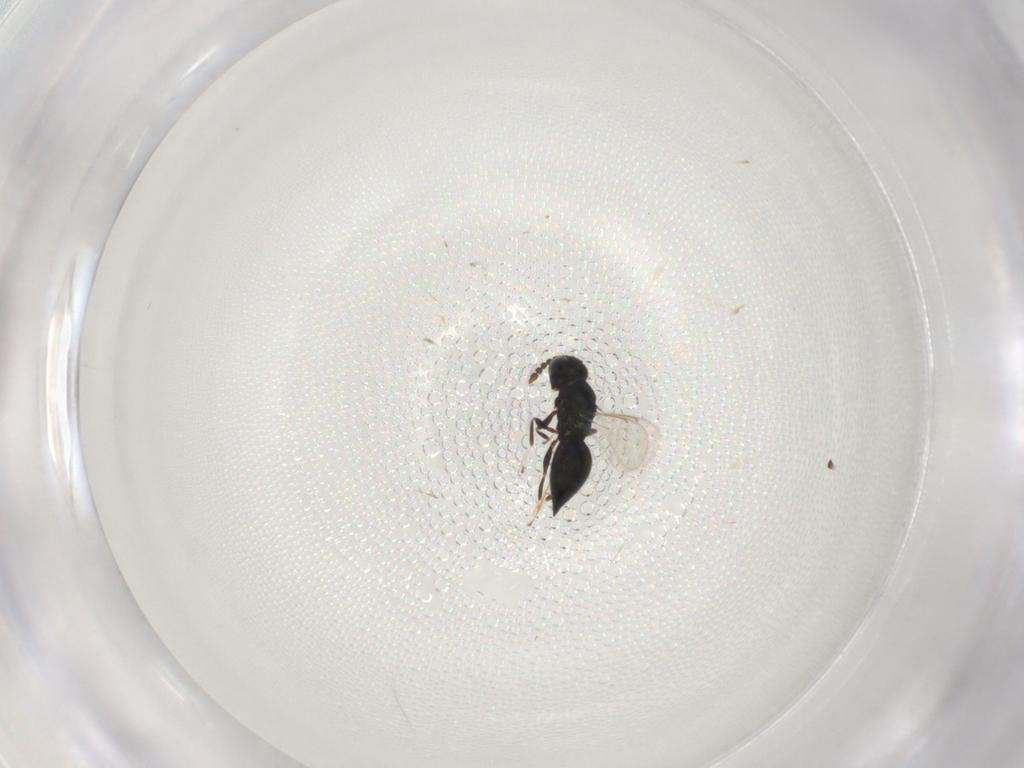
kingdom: Animalia
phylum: Arthropoda
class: Insecta
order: Hymenoptera
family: Eulophidae
